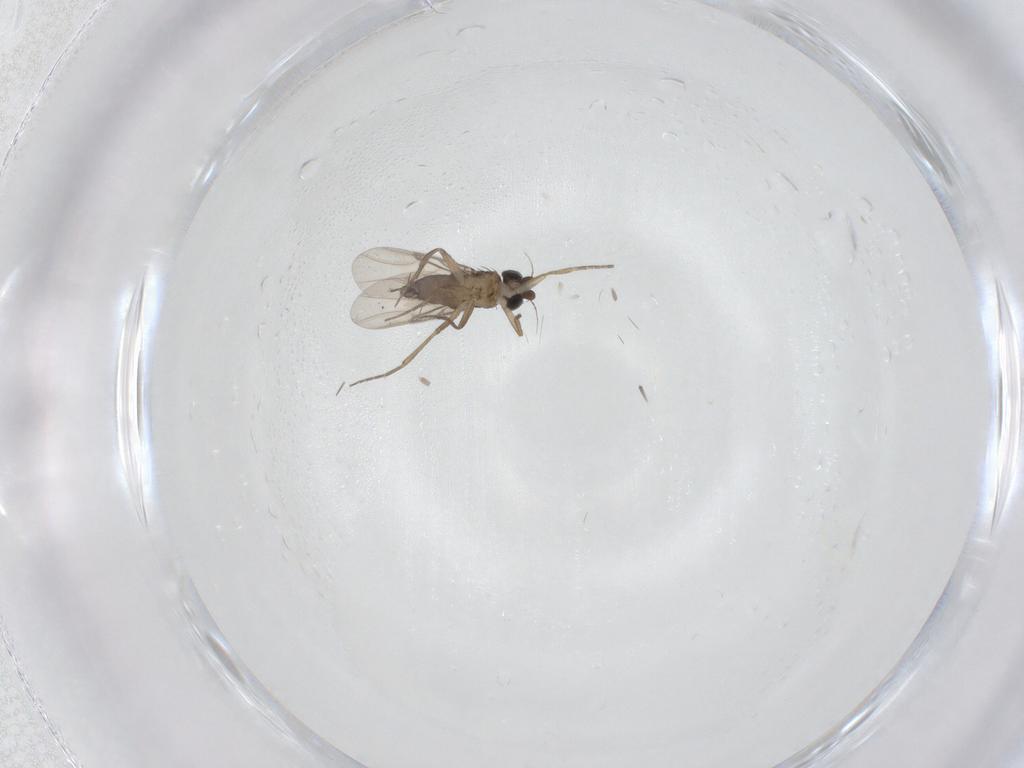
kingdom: Animalia
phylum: Arthropoda
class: Insecta
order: Diptera
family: Phoridae
